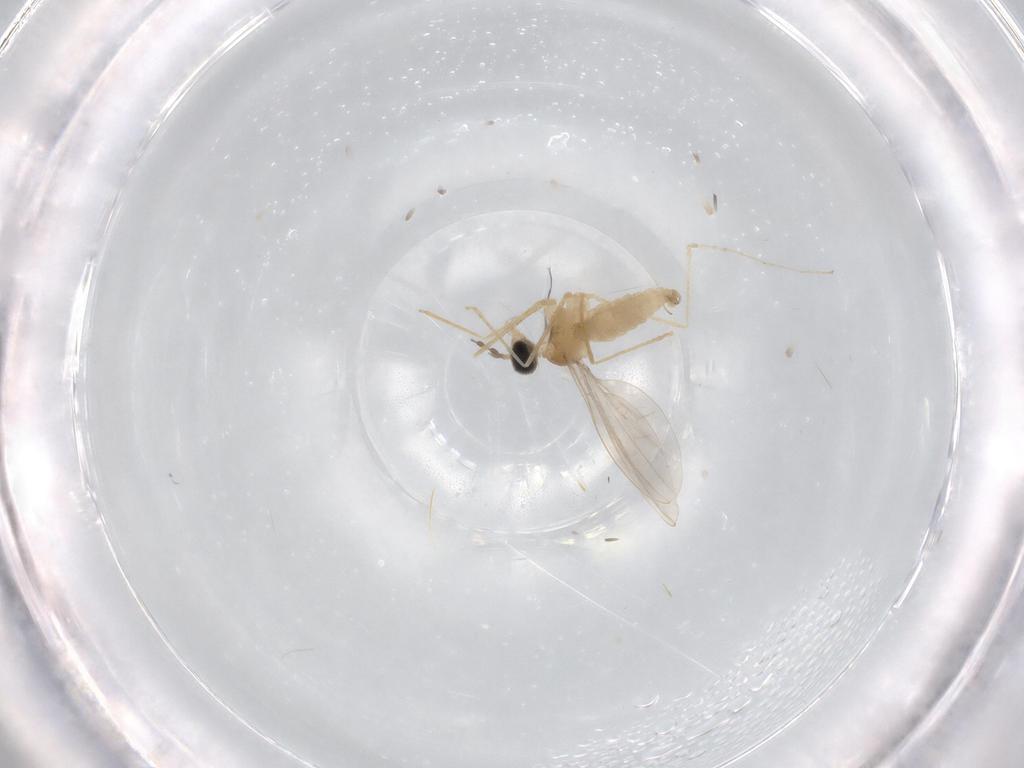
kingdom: Animalia
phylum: Arthropoda
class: Insecta
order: Diptera
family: Cecidomyiidae
